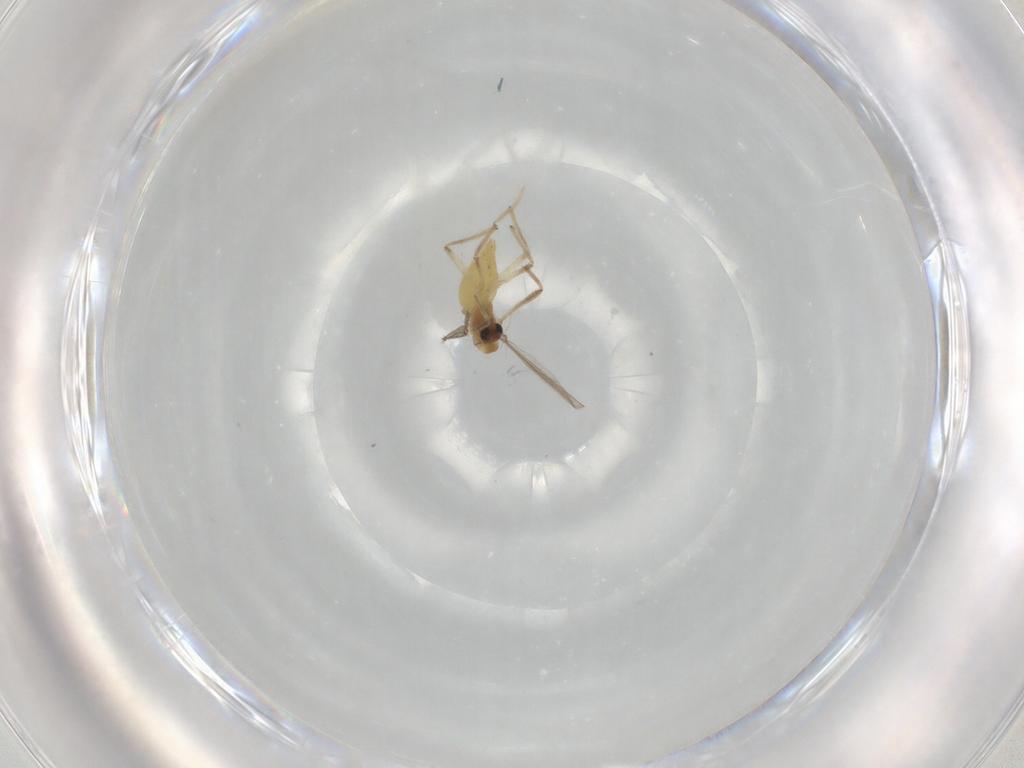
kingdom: Animalia
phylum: Arthropoda
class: Insecta
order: Diptera
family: Chironomidae
